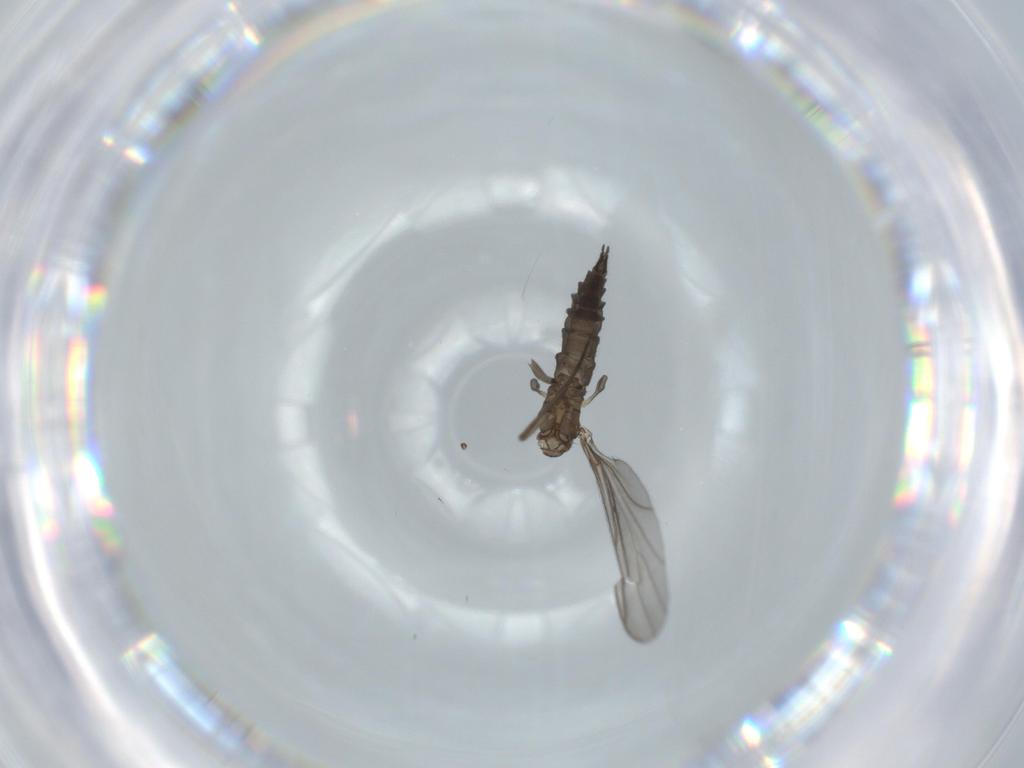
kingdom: Animalia
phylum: Arthropoda
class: Insecta
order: Diptera
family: Sciaridae
